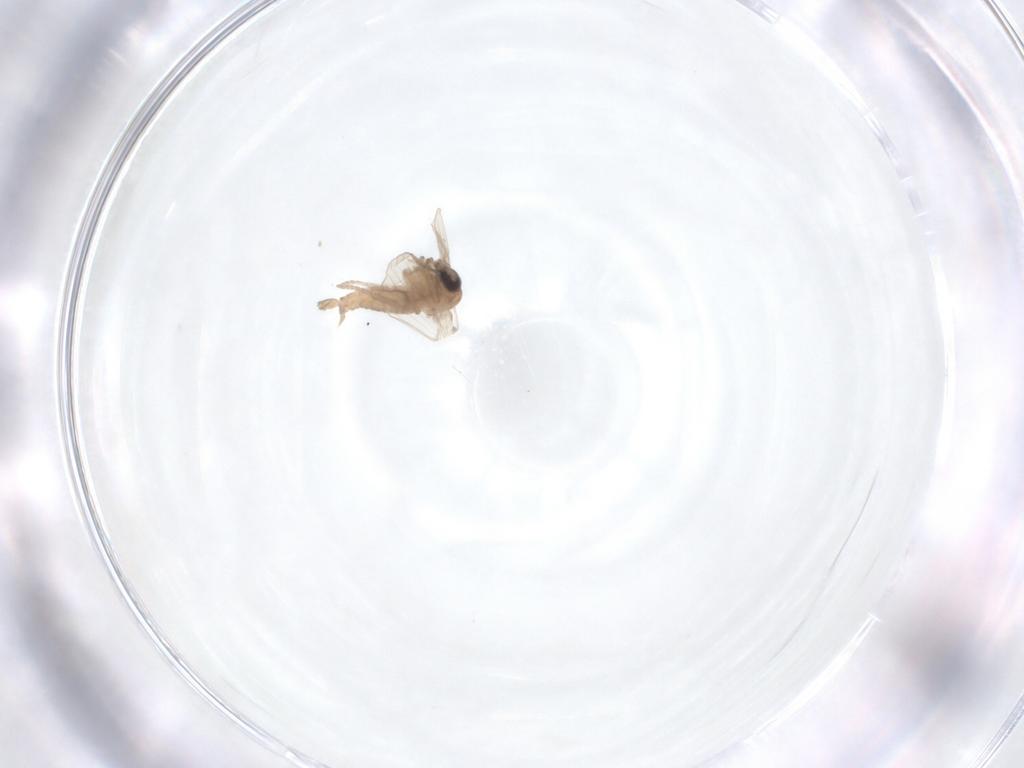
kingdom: Animalia
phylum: Arthropoda
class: Insecta
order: Diptera
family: Psychodidae
